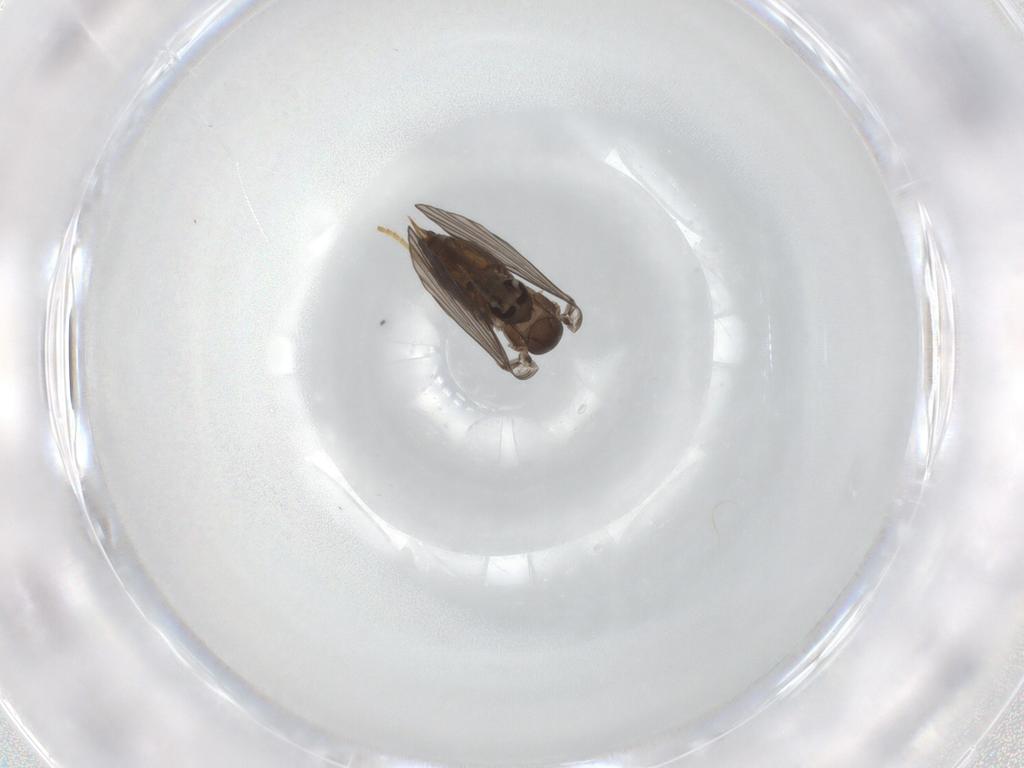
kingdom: Animalia
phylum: Arthropoda
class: Insecta
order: Diptera
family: Psychodidae
